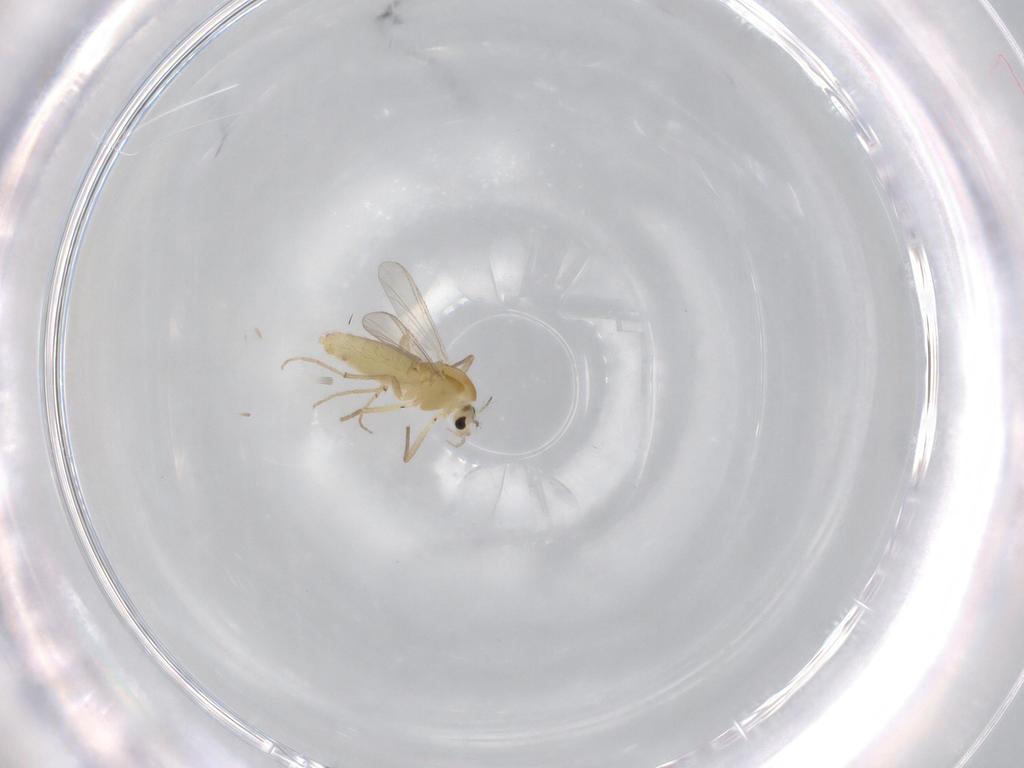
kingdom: Animalia
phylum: Arthropoda
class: Insecta
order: Diptera
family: Chironomidae
